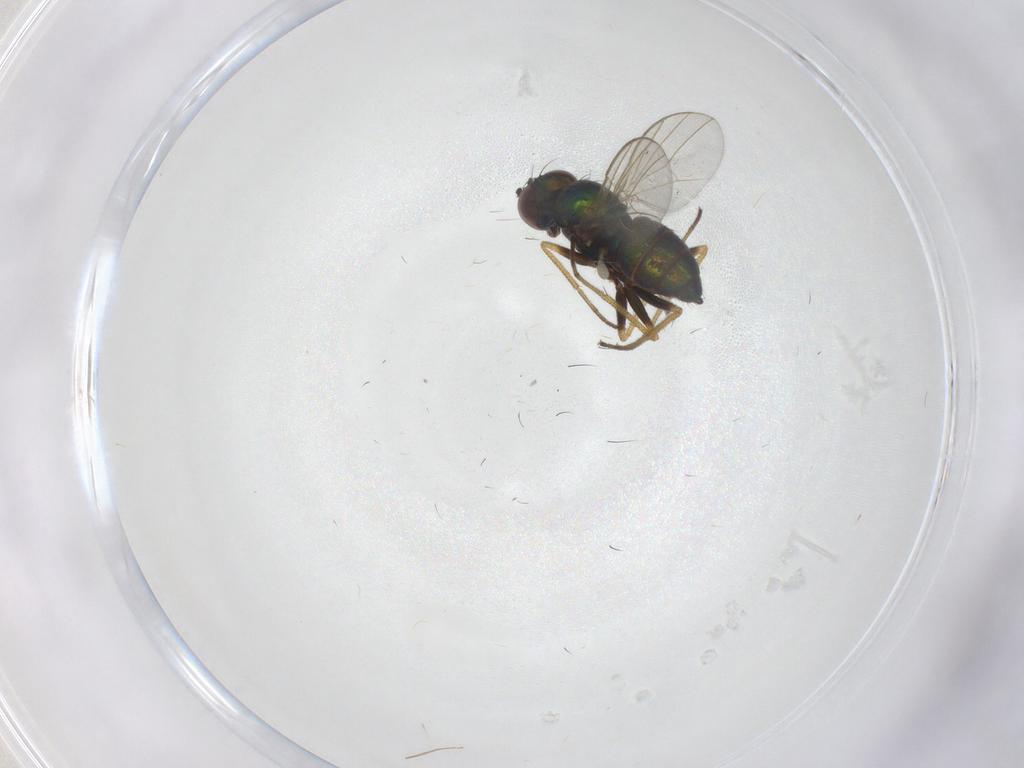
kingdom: Animalia
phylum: Arthropoda
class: Insecta
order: Diptera
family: Dolichopodidae
